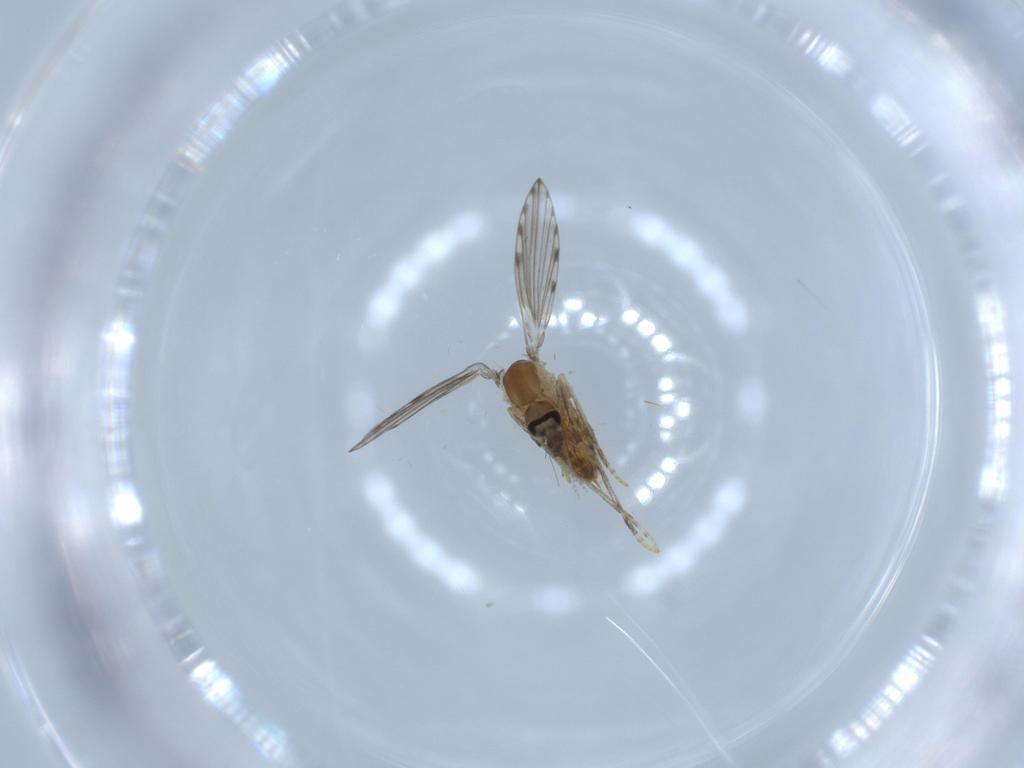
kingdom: Animalia
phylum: Arthropoda
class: Insecta
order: Diptera
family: Psychodidae
